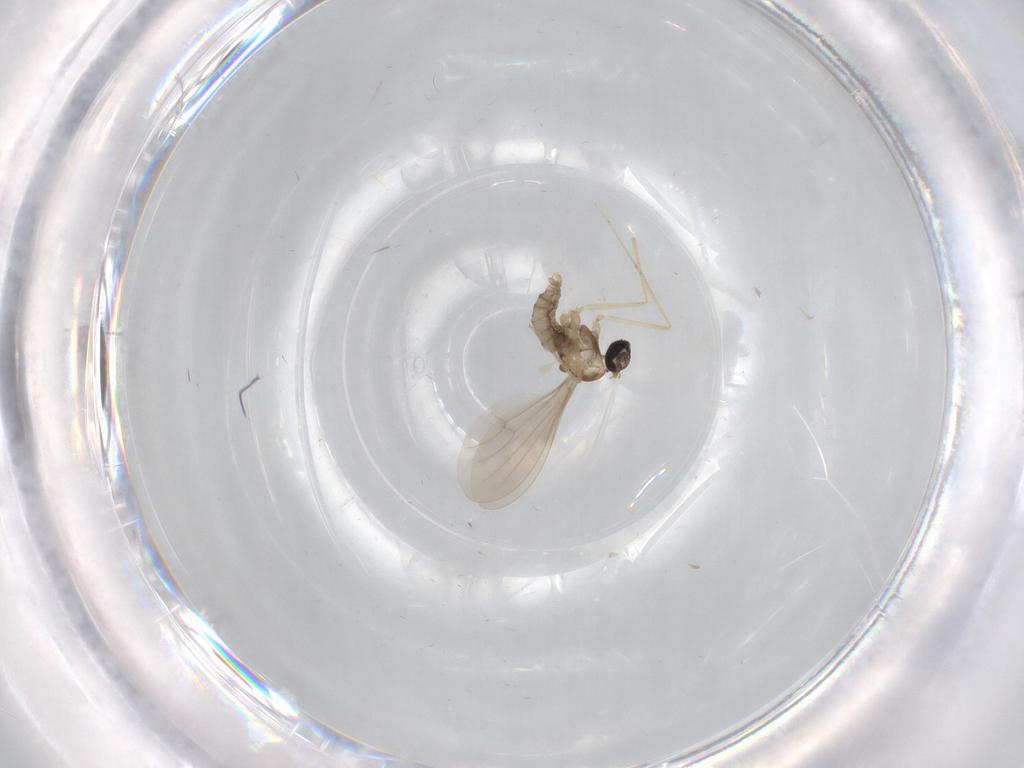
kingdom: Animalia
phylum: Arthropoda
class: Insecta
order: Diptera
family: Phoridae
